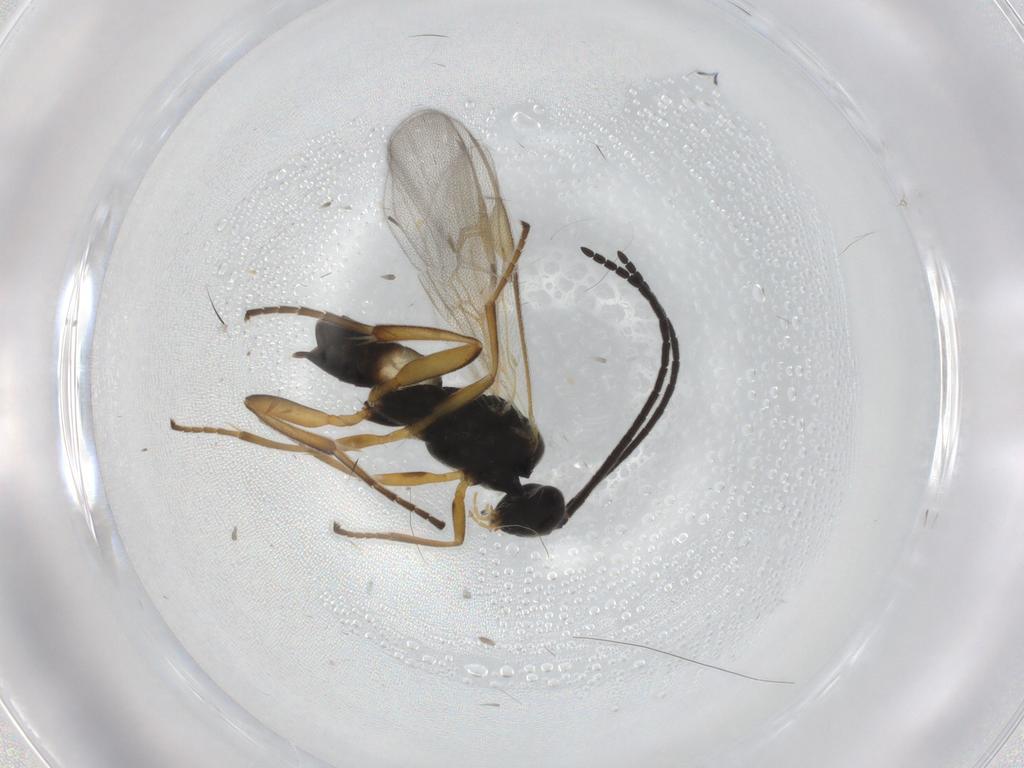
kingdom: Animalia
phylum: Arthropoda
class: Insecta
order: Hymenoptera
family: Braconidae
